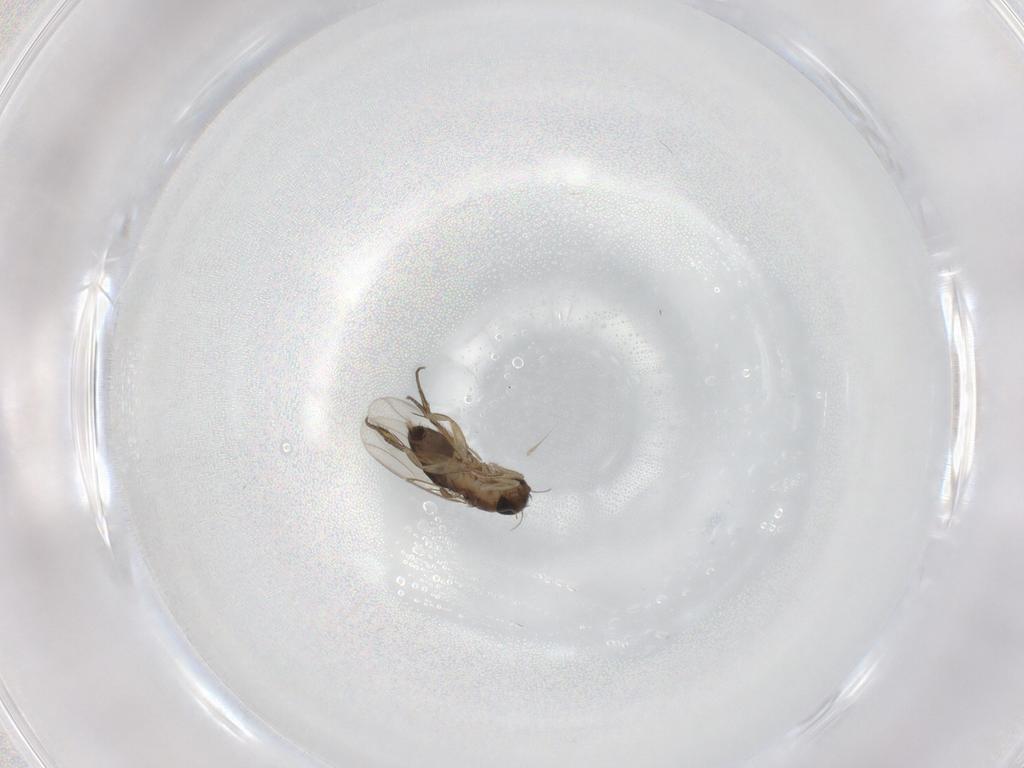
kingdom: Animalia
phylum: Arthropoda
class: Insecta
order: Diptera
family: Phoridae
